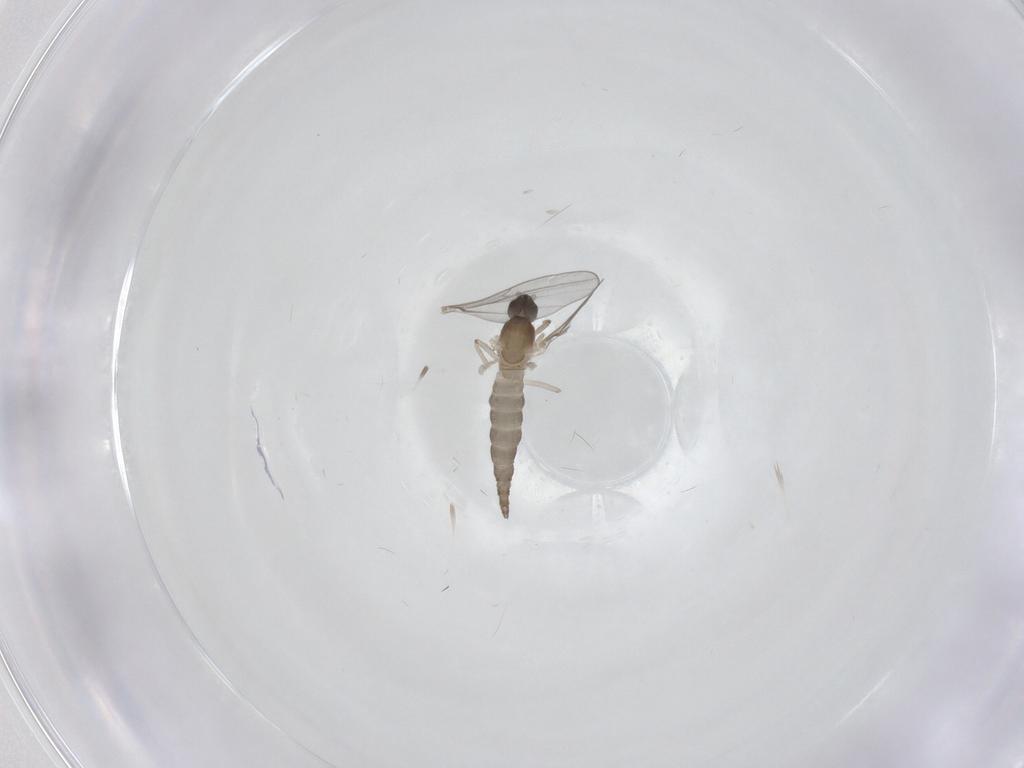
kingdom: Animalia
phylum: Arthropoda
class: Insecta
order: Diptera
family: Cecidomyiidae
